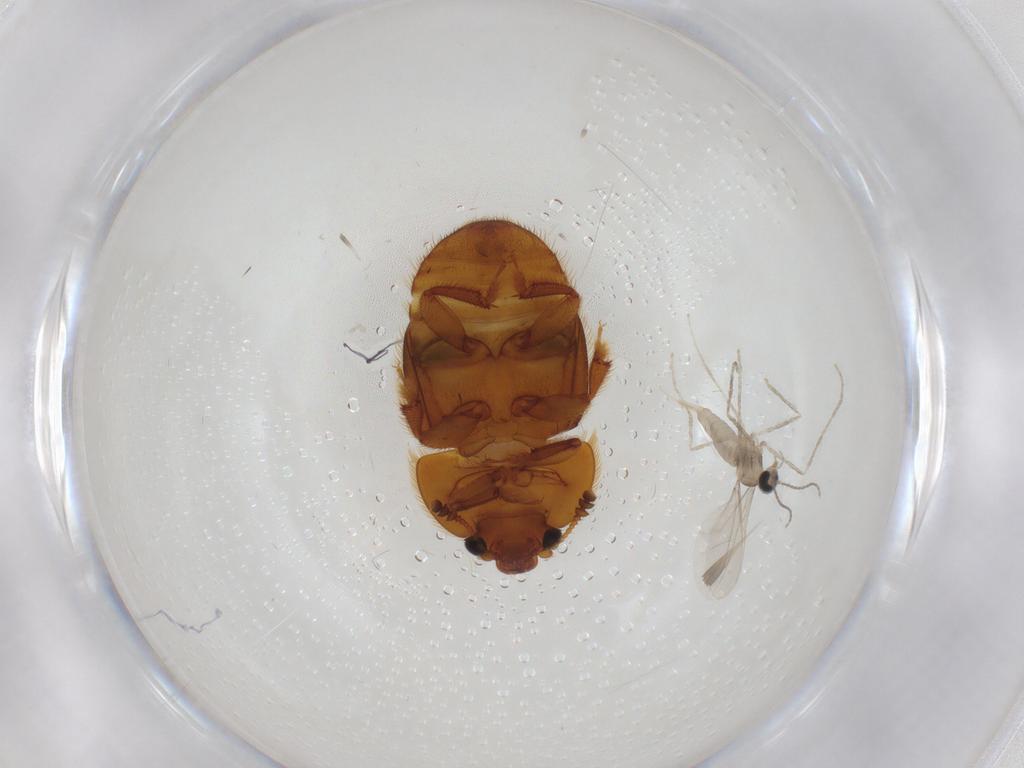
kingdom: Animalia
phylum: Arthropoda
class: Insecta
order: Coleoptera
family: Nitidulidae
